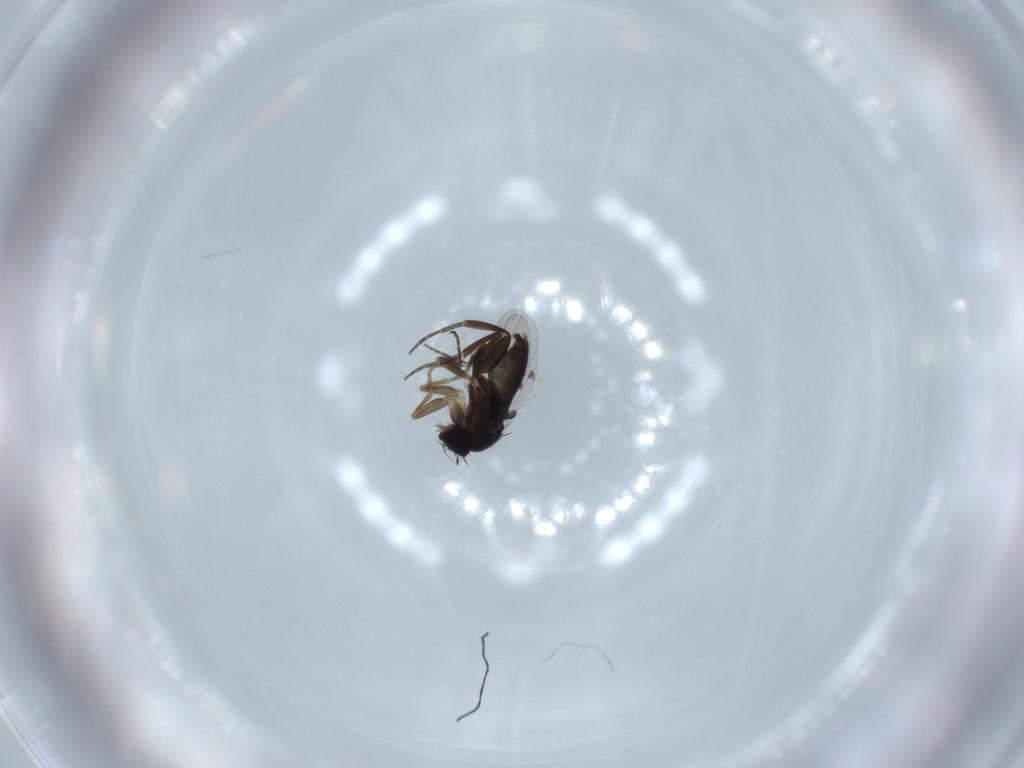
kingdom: Animalia
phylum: Arthropoda
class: Insecta
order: Diptera
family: Phoridae
